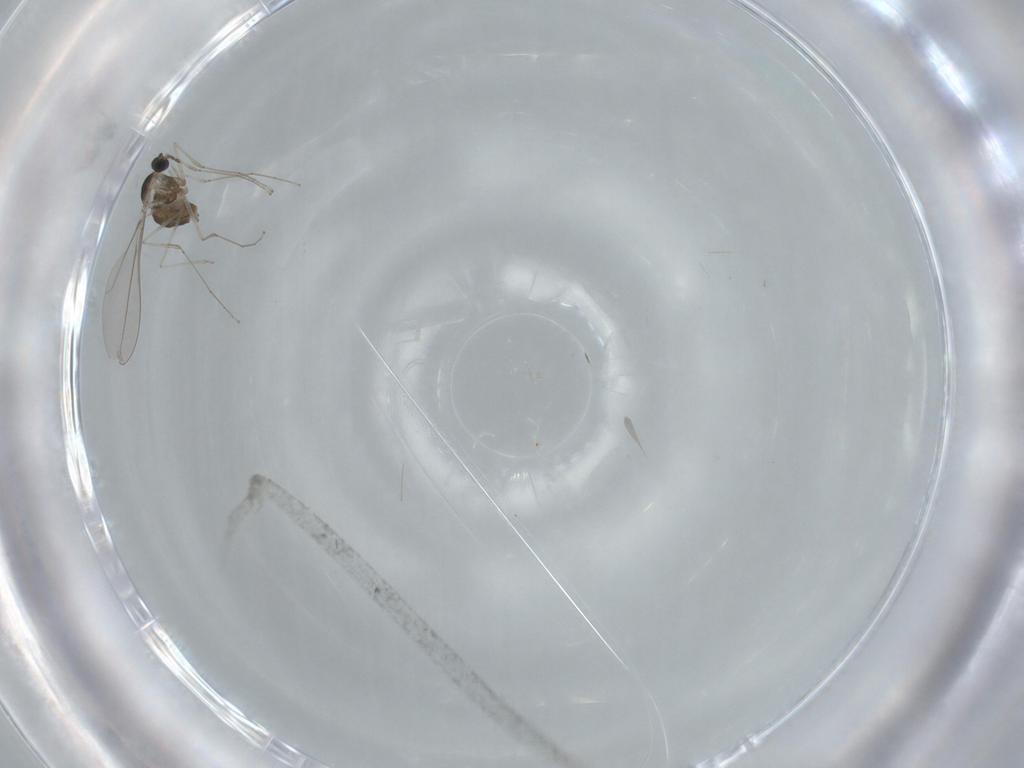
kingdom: Animalia
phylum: Arthropoda
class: Insecta
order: Diptera
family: Cecidomyiidae
